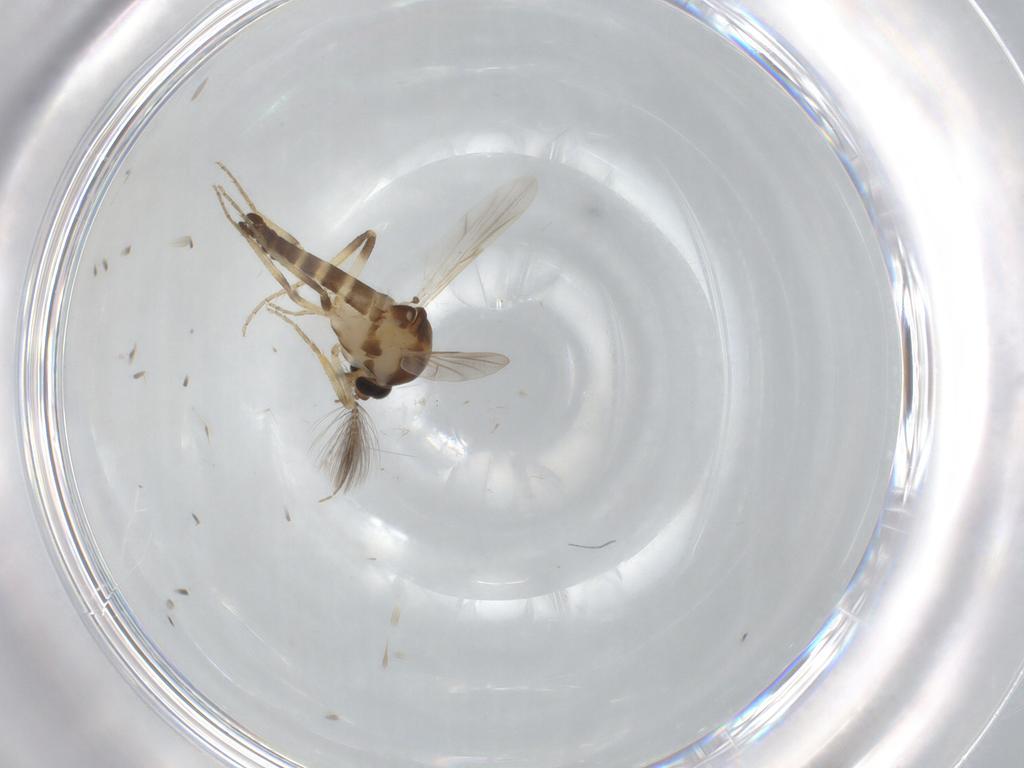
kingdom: Animalia
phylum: Arthropoda
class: Insecta
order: Diptera
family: Ceratopogonidae
